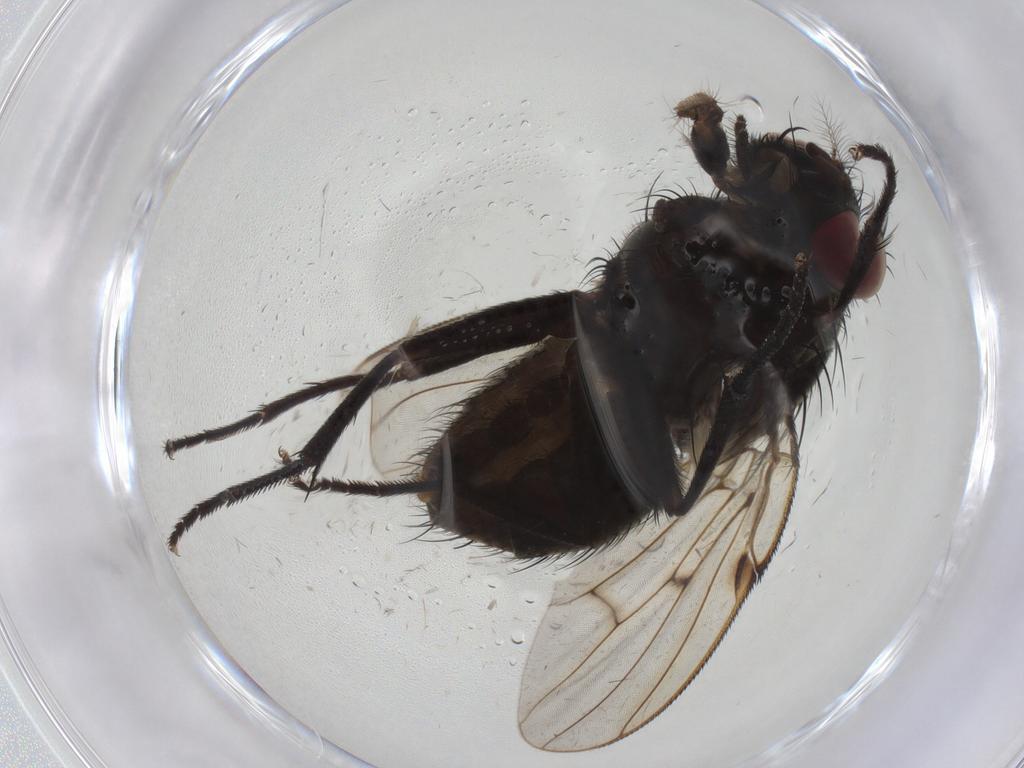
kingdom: Animalia
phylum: Arthropoda
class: Insecta
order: Diptera
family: Muscidae
